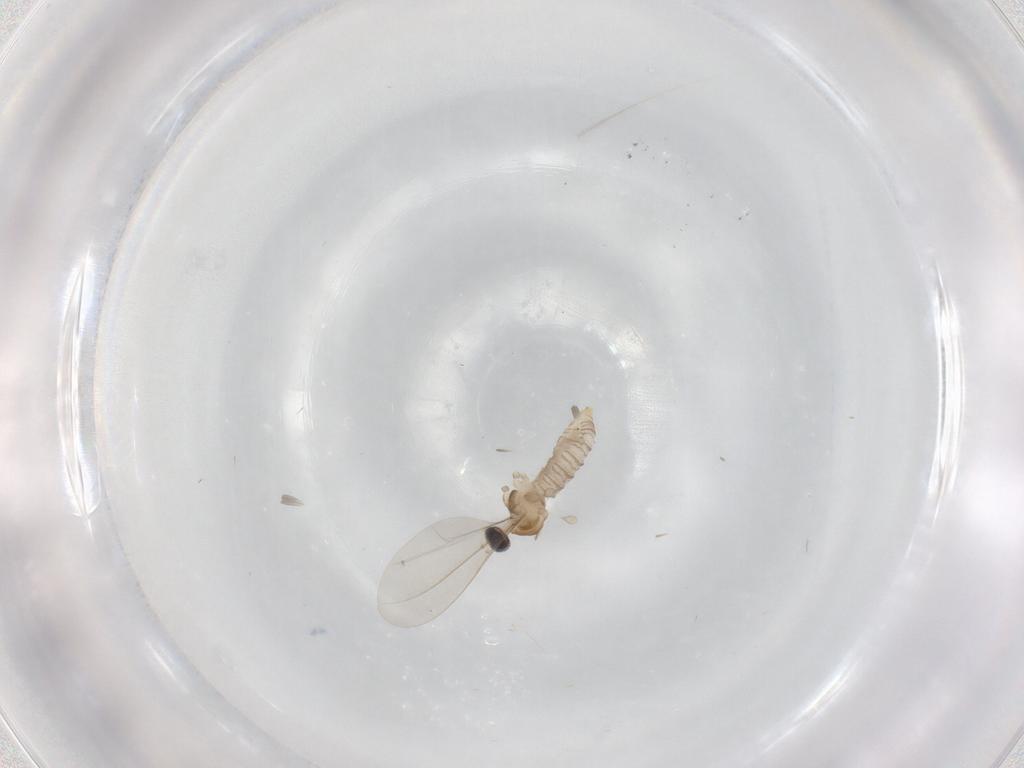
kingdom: Animalia
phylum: Arthropoda
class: Insecta
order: Diptera
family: Cecidomyiidae
